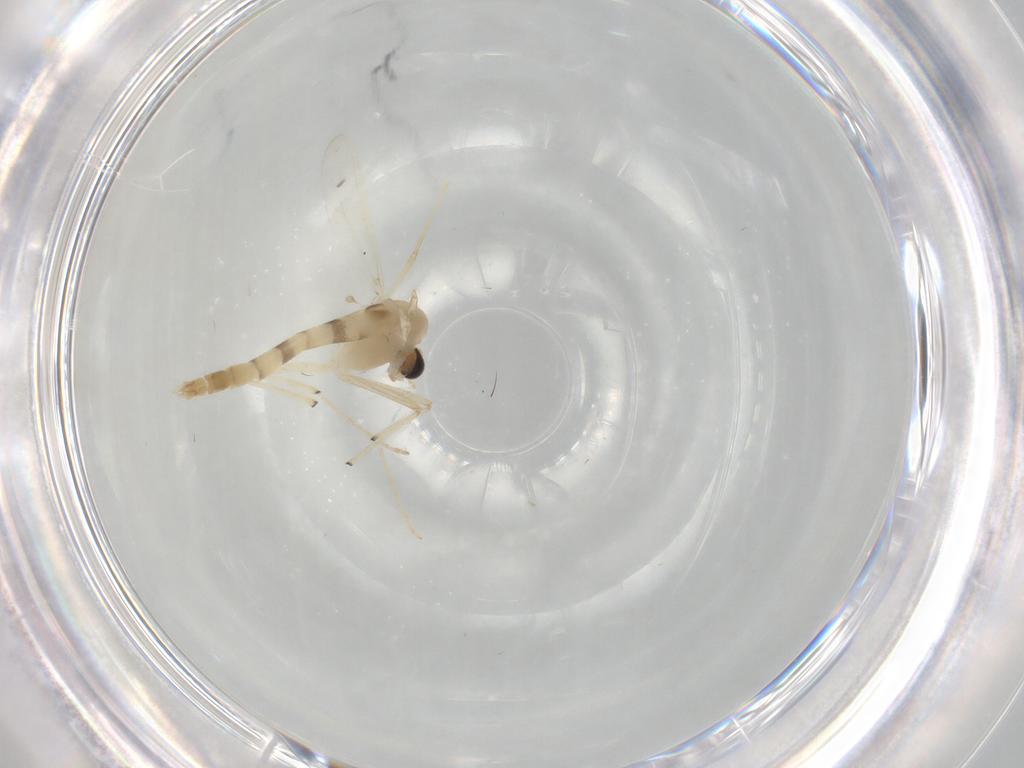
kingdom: Animalia
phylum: Arthropoda
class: Insecta
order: Diptera
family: Chironomidae
